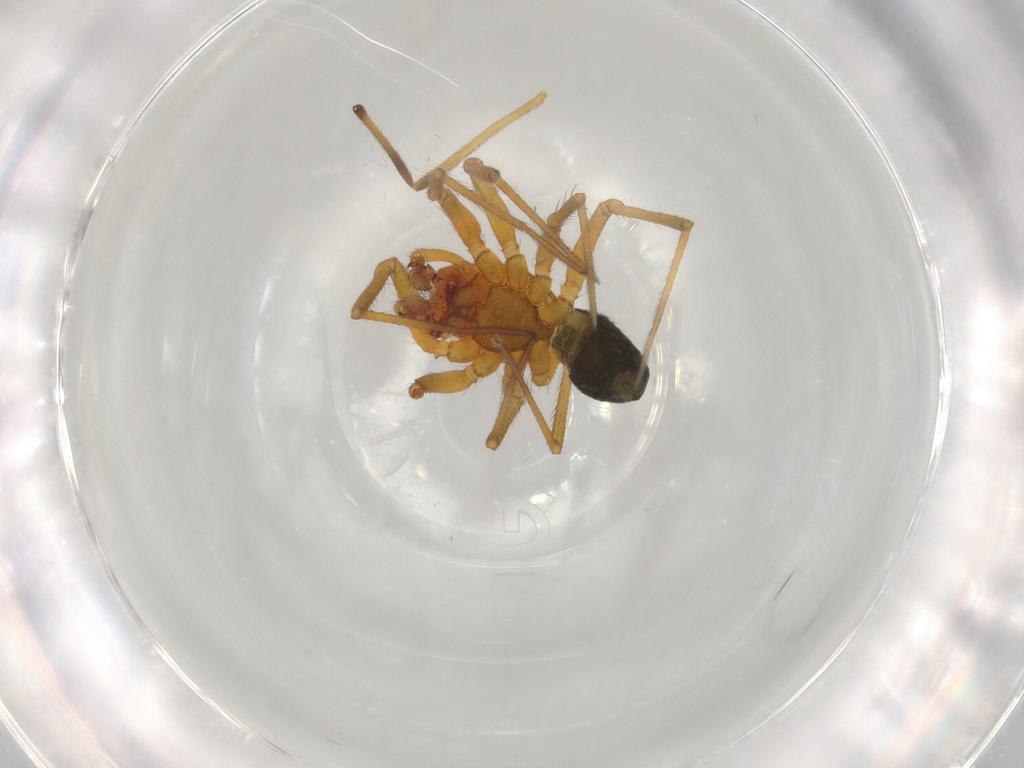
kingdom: Animalia
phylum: Arthropoda
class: Arachnida
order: Araneae
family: Linyphiidae
